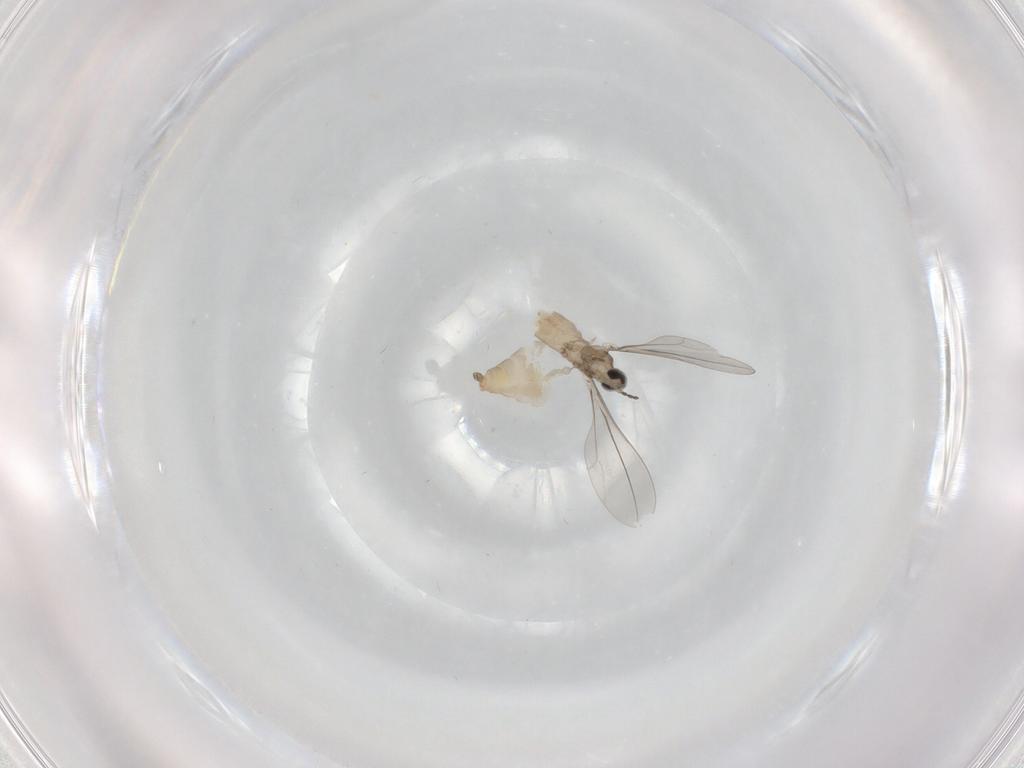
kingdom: Animalia
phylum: Arthropoda
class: Insecta
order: Diptera
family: Cecidomyiidae
